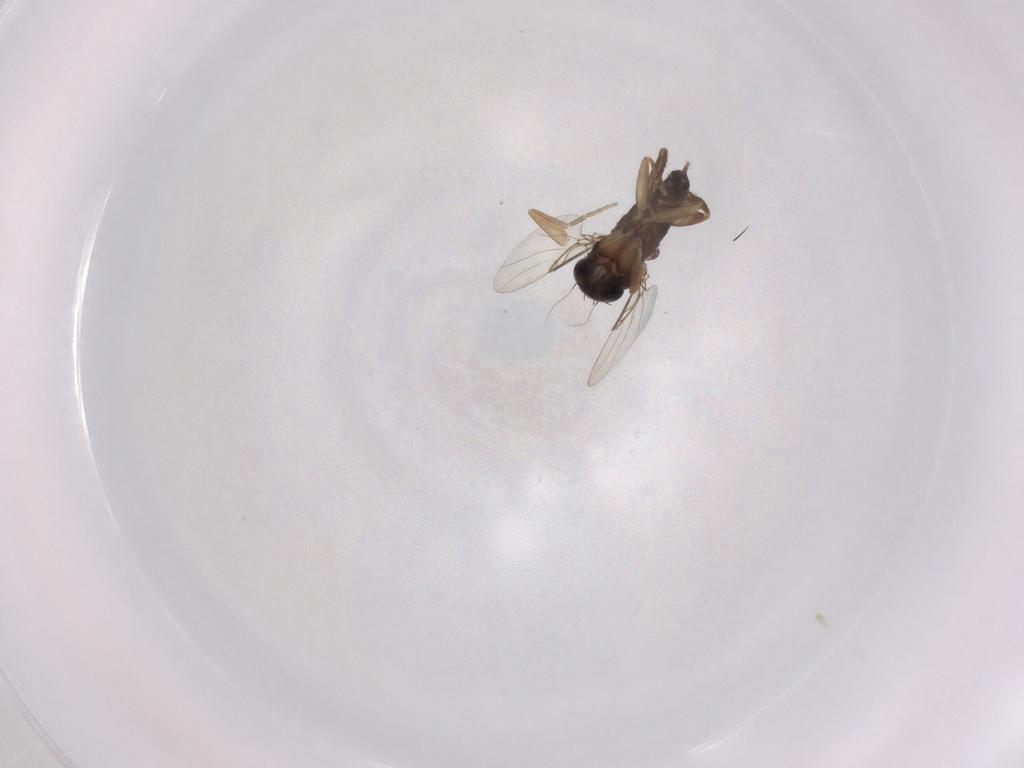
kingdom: Animalia
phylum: Arthropoda
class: Insecta
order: Diptera
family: Phoridae
